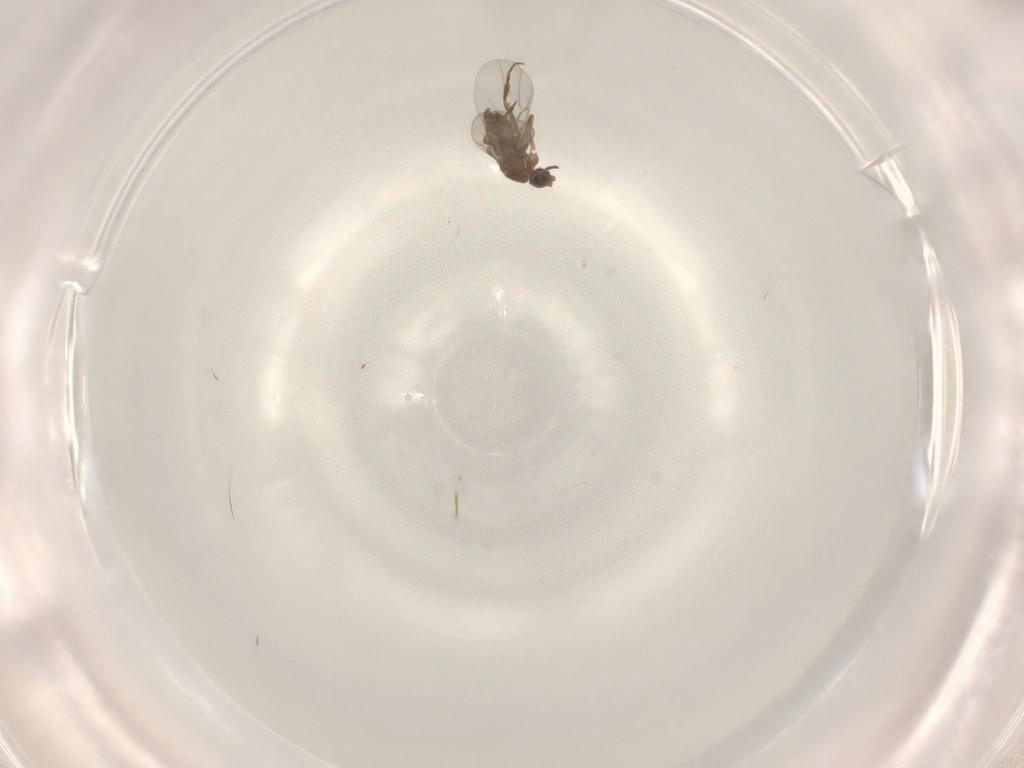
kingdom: Animalia
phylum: Arthropoda
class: Insecta
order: Diptera
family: Phoridae
